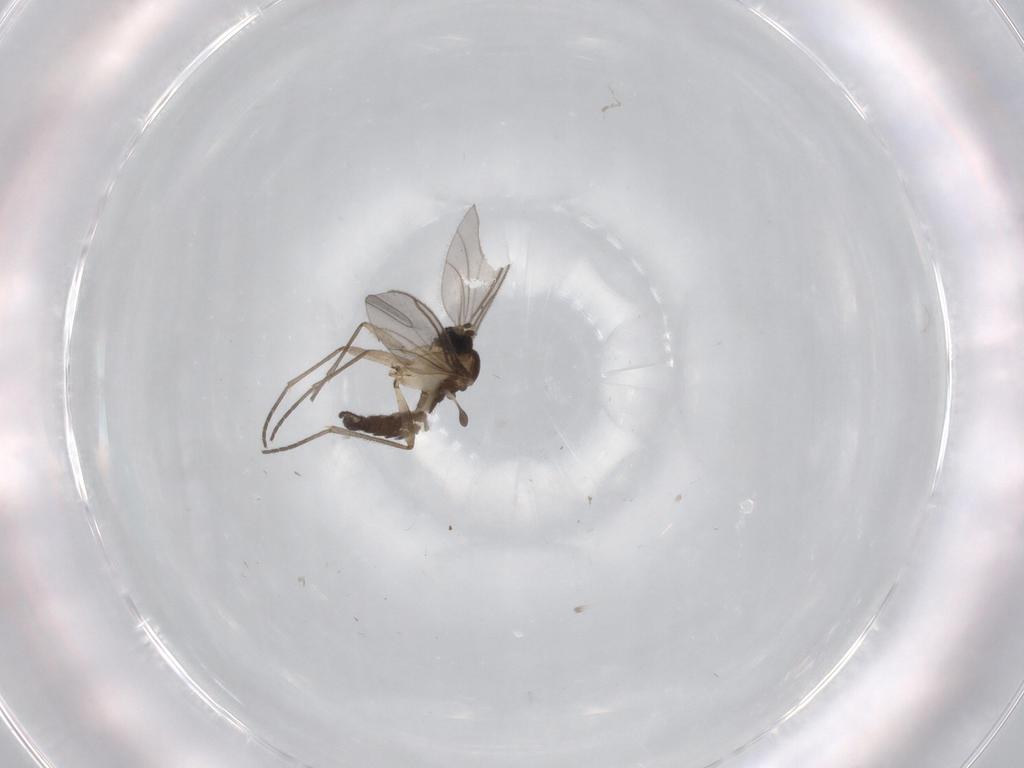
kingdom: Animalia
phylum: Arthropoda
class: Insecta
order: Diptera
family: Sciaridae
